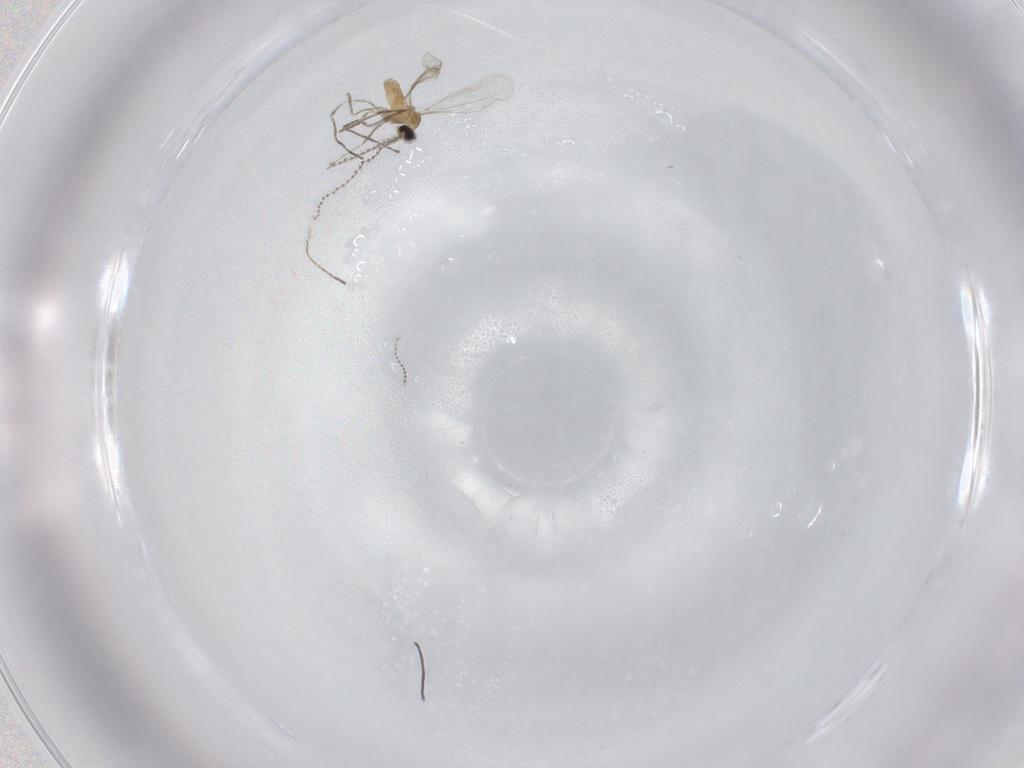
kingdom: Animalia
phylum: Arthropoda
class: Insecta
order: Diptera
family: Cecidomyiidae
